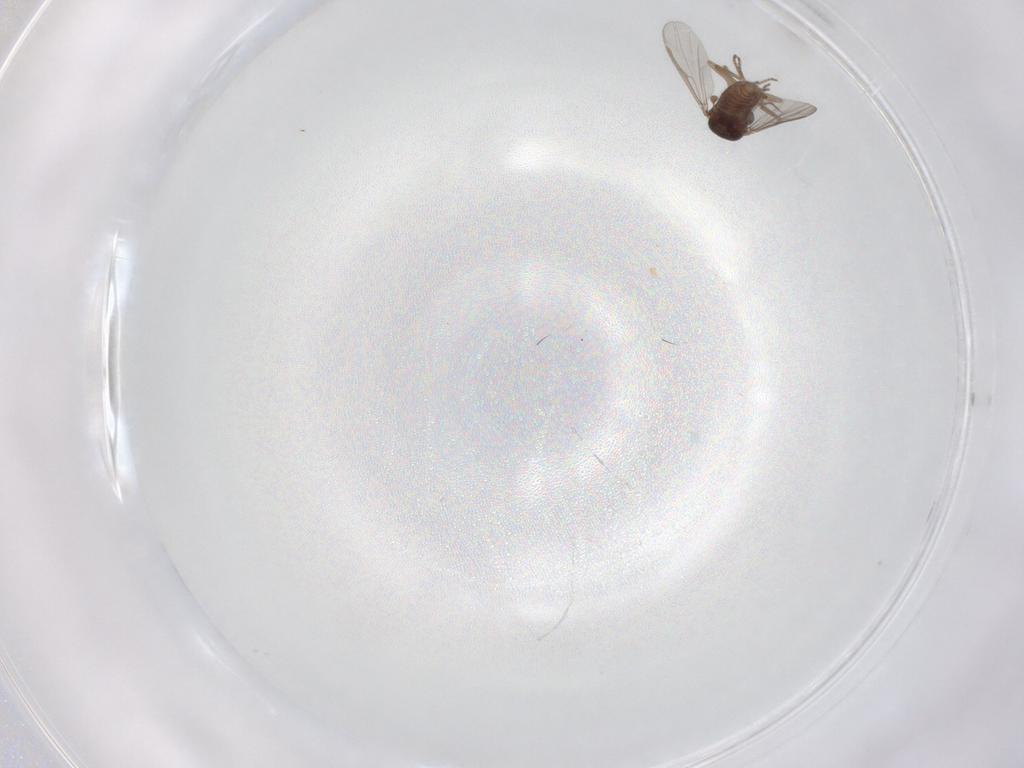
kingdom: Animalia
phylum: Arthropoda
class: Insecta
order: Diptera
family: Ceratopogonidae
